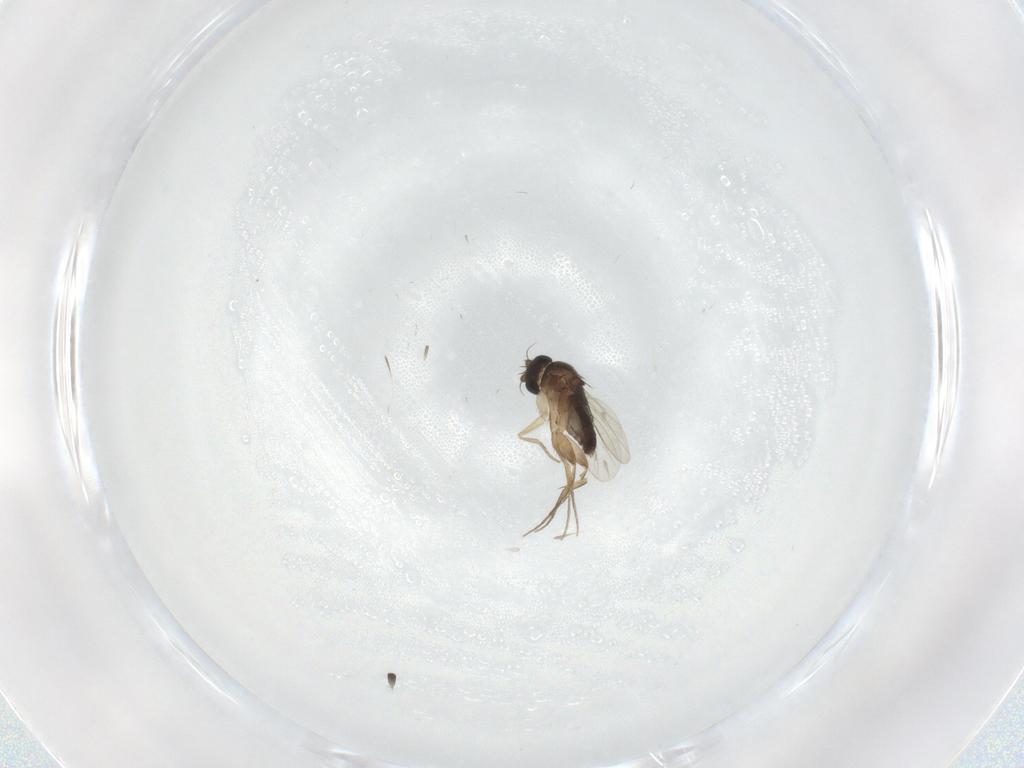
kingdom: Animalia
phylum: Arthropoda
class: Insecta
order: Diptera
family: Phoridae
